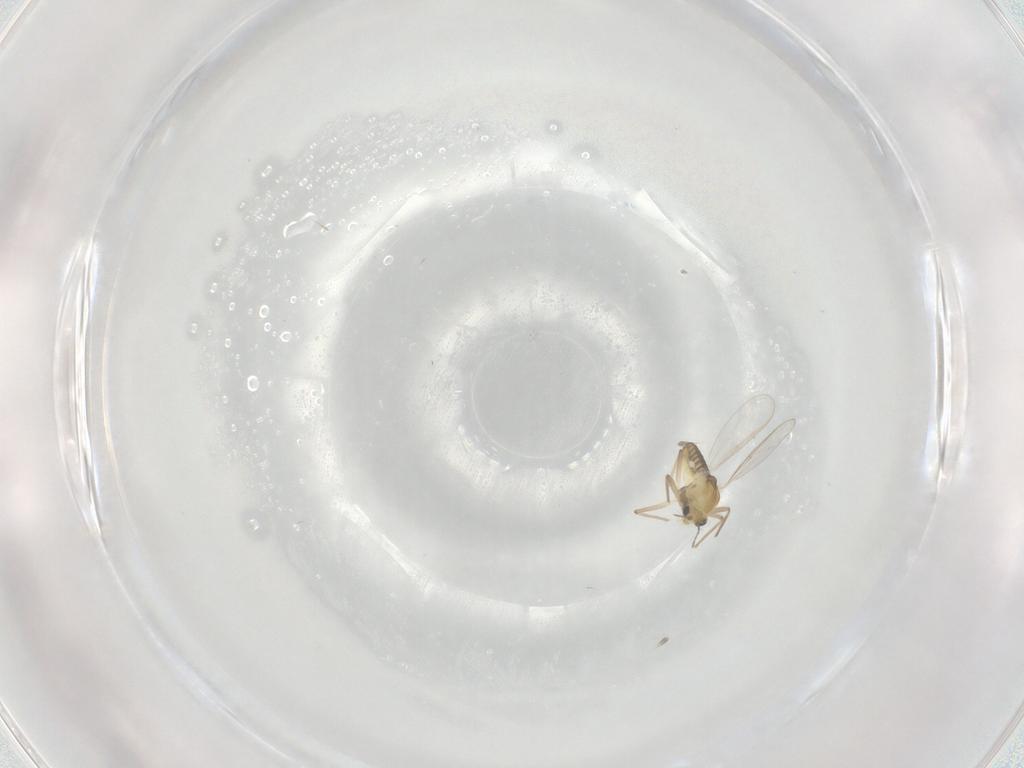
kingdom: Animalia
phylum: Arthropoda
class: Insecta
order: Diptera
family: Chironomidae
